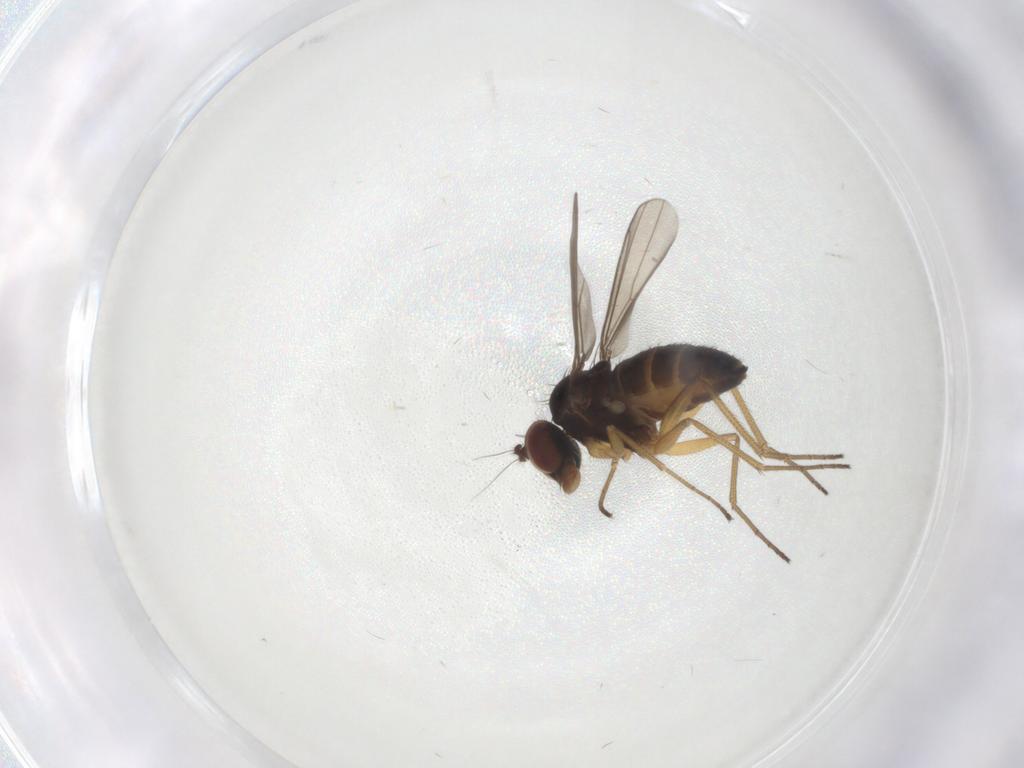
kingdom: Animalia
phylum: Arthropoda
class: Insecta
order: Diptera
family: Dolichopodidae
